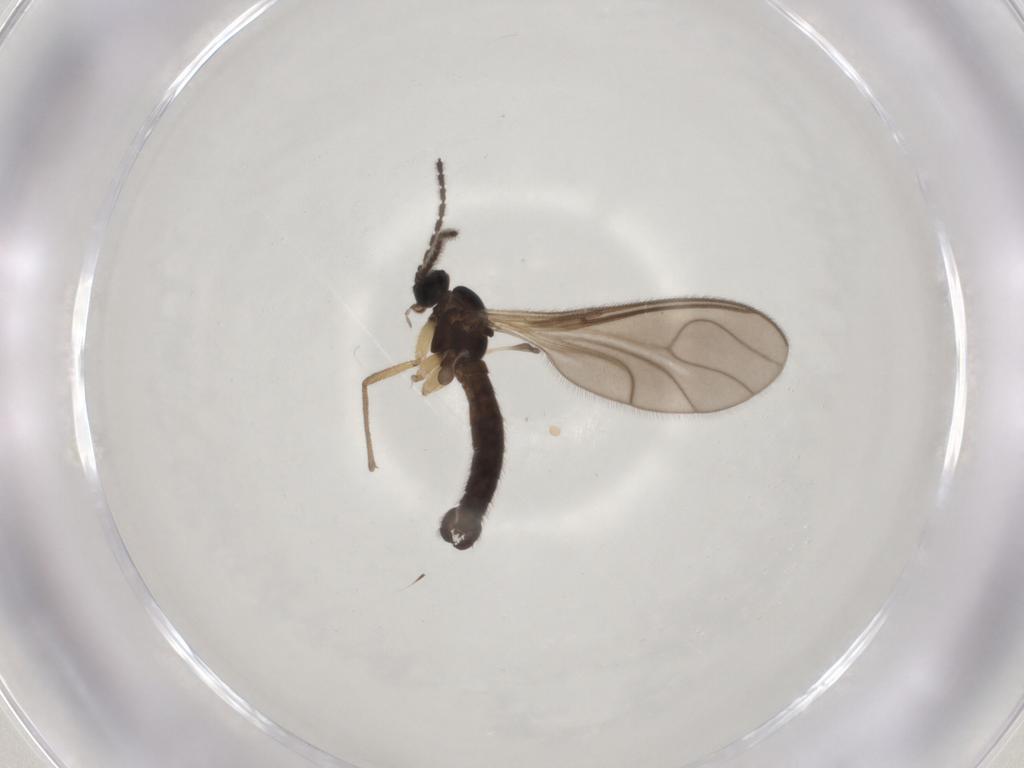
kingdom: Animalia
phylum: Arthropoda
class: Insecta
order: Diptera
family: Sciaridae
